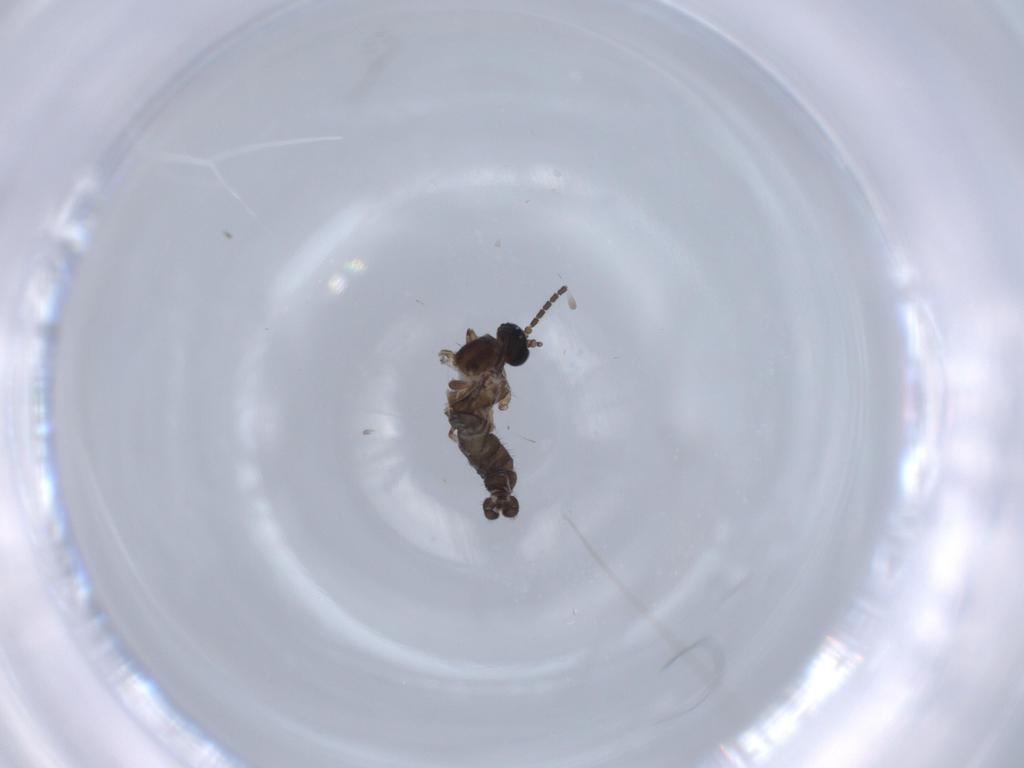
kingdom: Animalia
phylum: Arthropoda
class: Insecta
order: Diptera
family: Sciaridae
